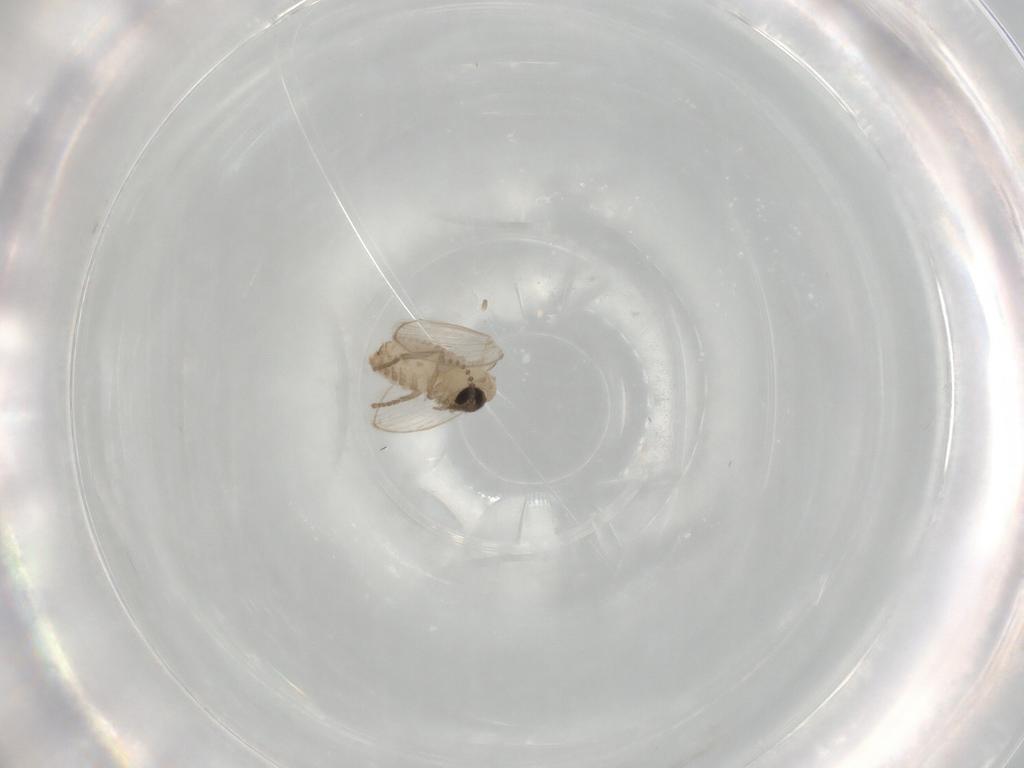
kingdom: Animalia
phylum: Arthropoda
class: Insecta
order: Diptera
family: Psychodidae
